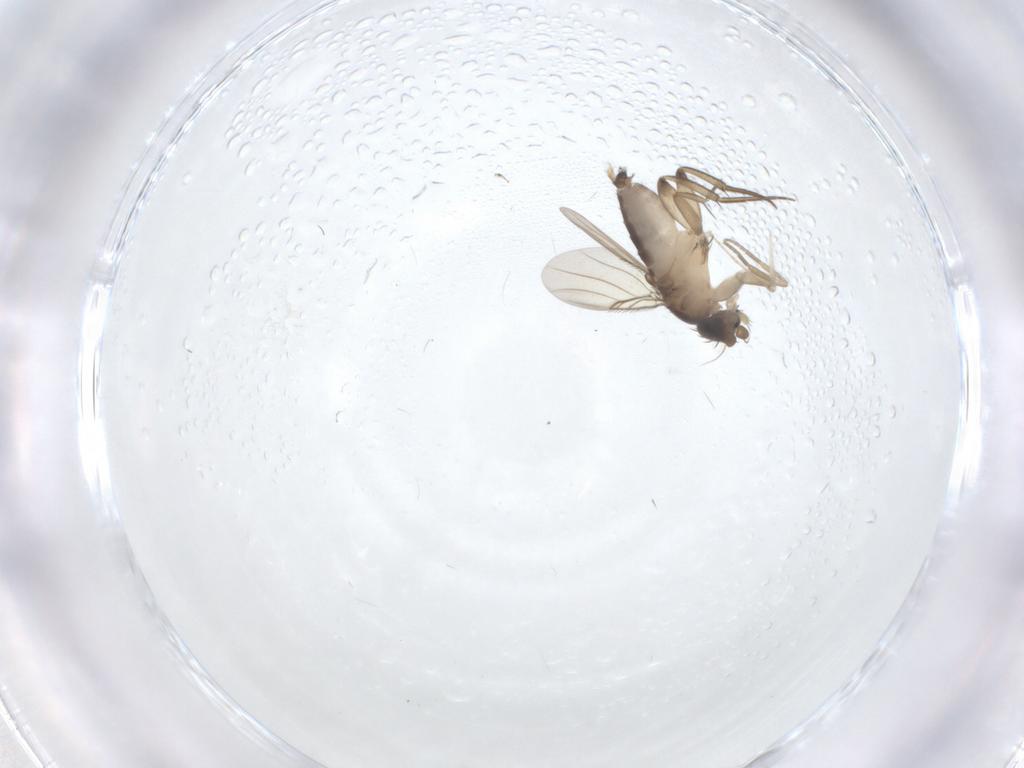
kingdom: Animalia
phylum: Arthropoda
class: Insecta
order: Diptera
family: Phoridae
